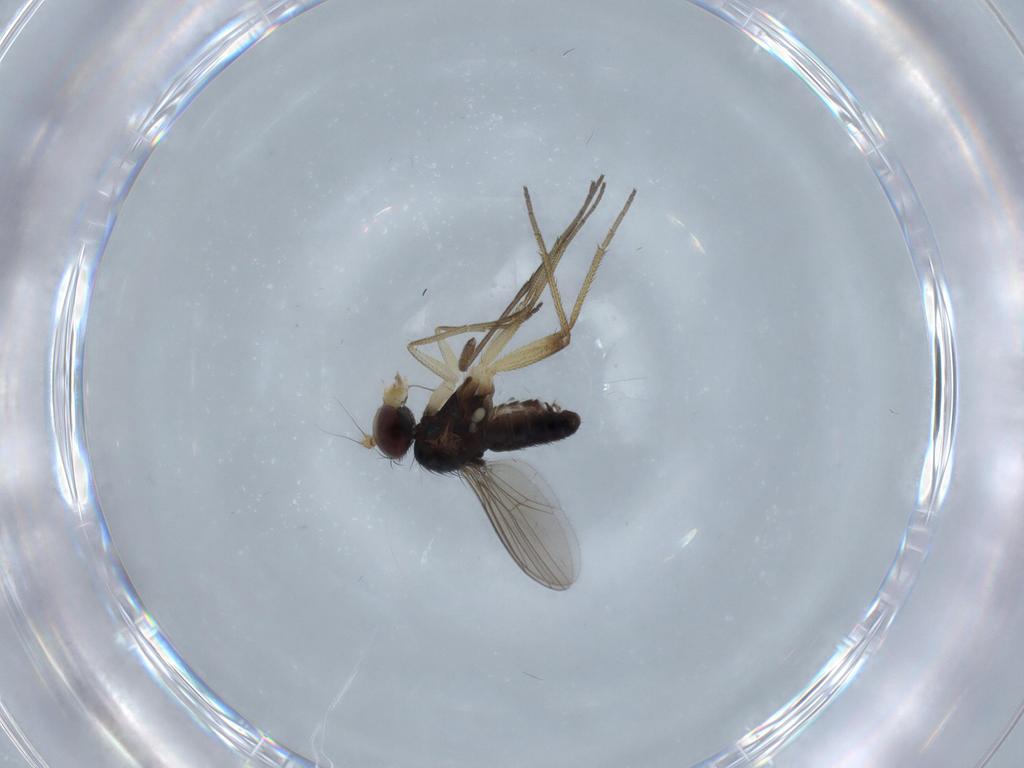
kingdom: Animalia
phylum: Arthropoda
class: Insecta
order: Diptera
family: Dolichopodidae
